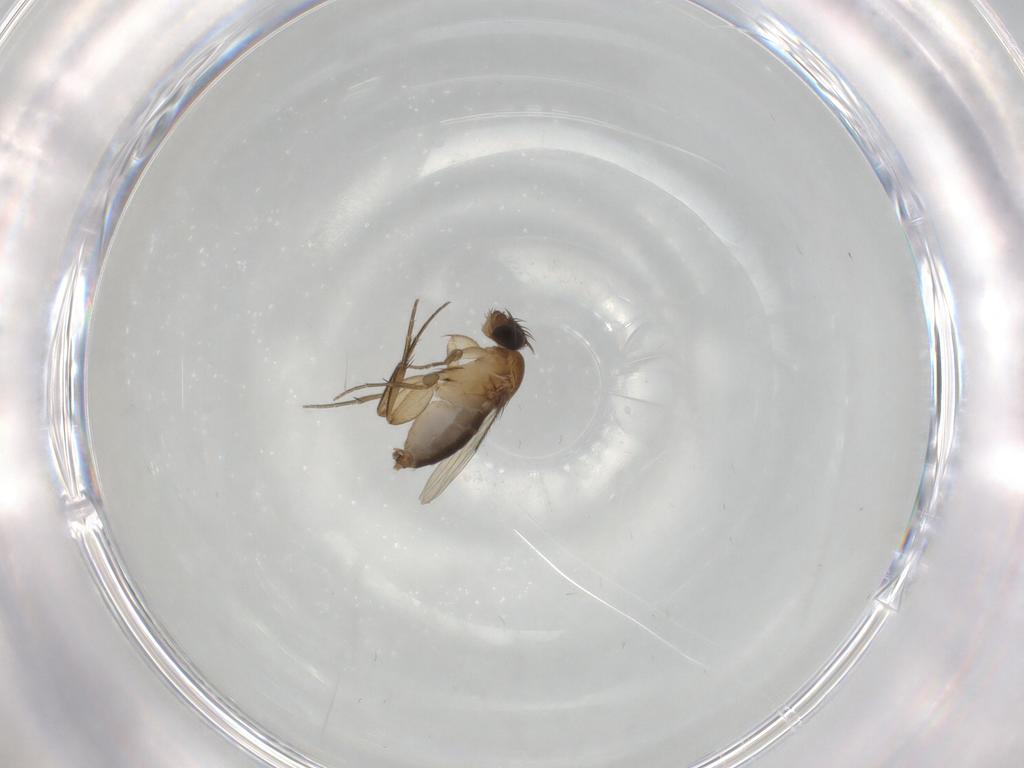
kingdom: Animalia
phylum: Arthropoda
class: Insecta
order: Diptera
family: Phoridae
